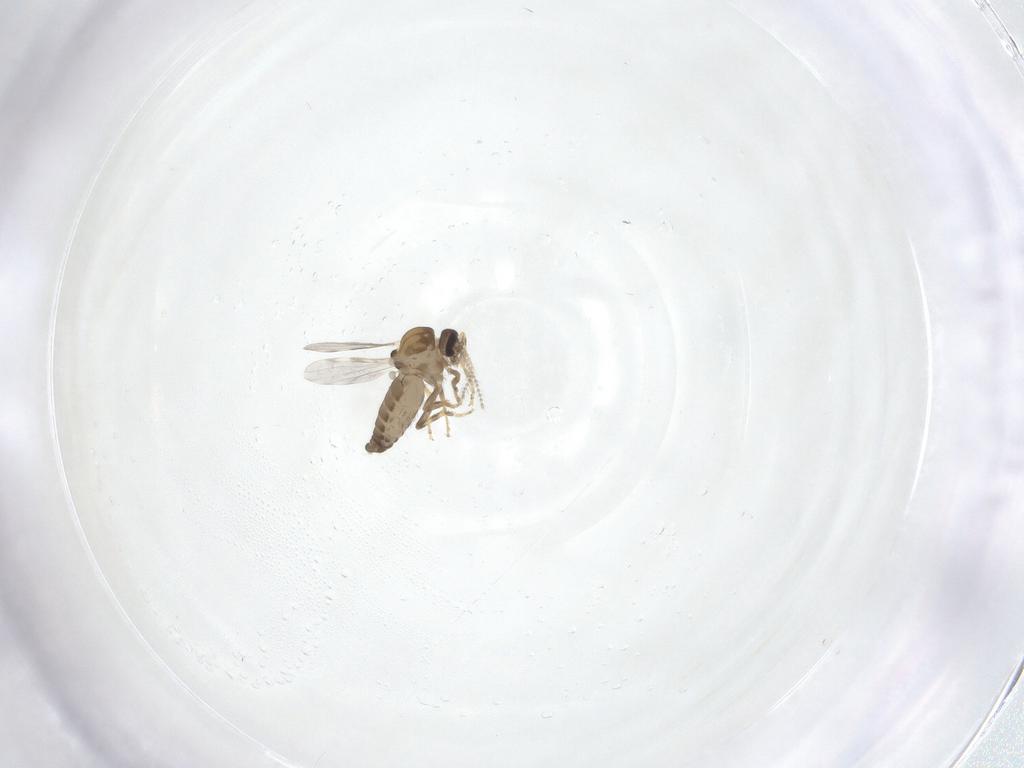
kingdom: Animalia
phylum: Arthropoda
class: Insecta
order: Diptera
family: Ceratopogonidae
